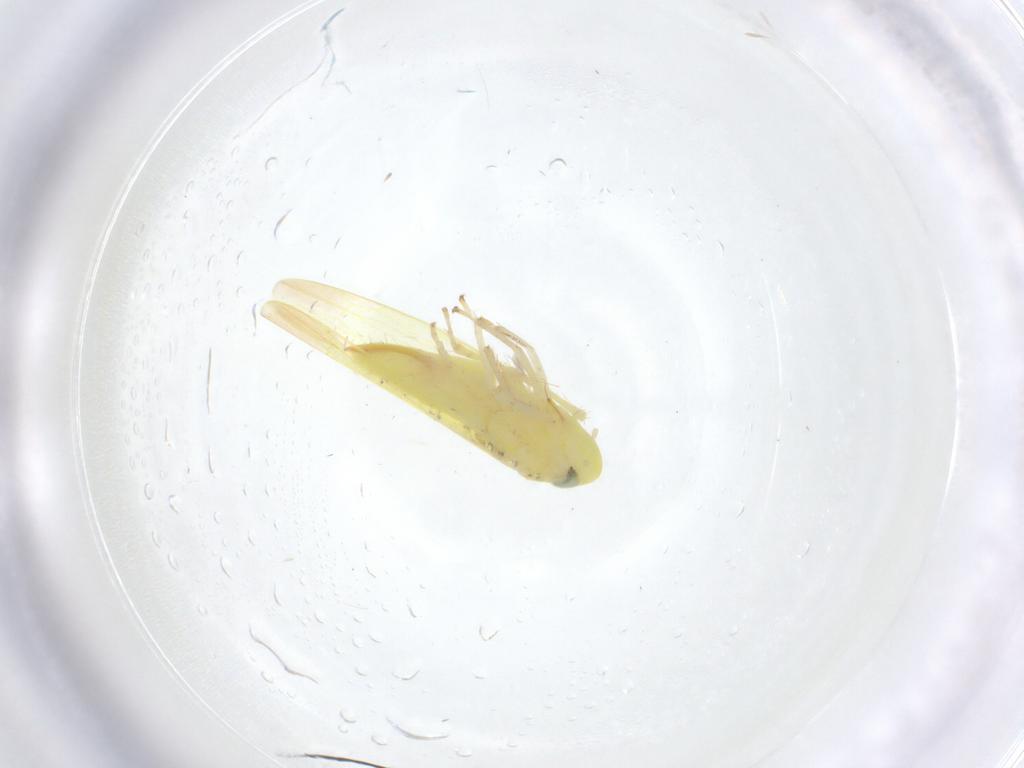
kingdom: Animalia
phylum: Arthropoda
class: Insecta
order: Hemiptera
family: Cicadellidae
